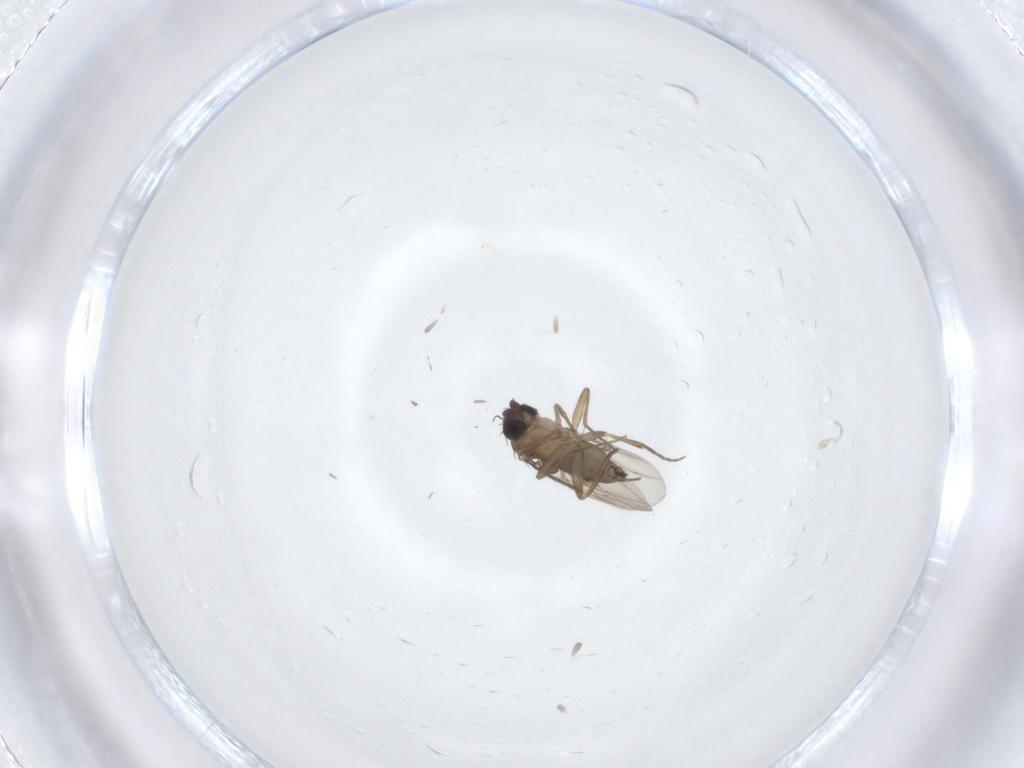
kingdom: Animalia
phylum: Arthropoda
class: Insecta
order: Diptera
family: Phoridae
